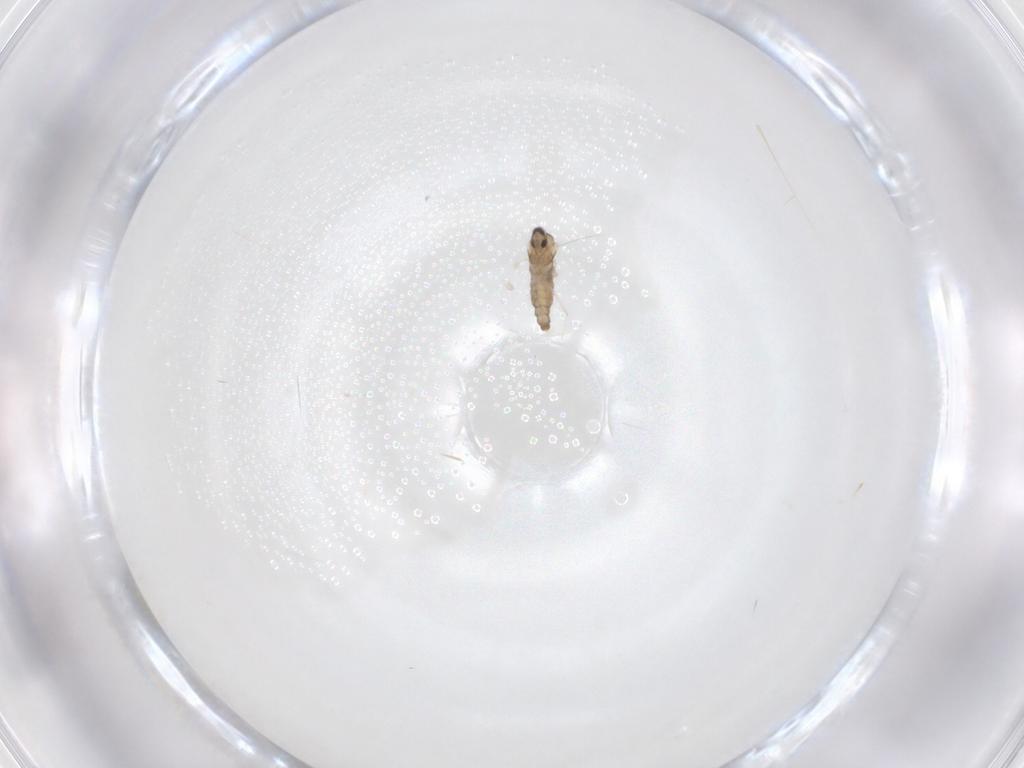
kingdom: Animalia
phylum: Arthropoda
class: Insecta
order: Diptera
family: Cecidomyiidae
